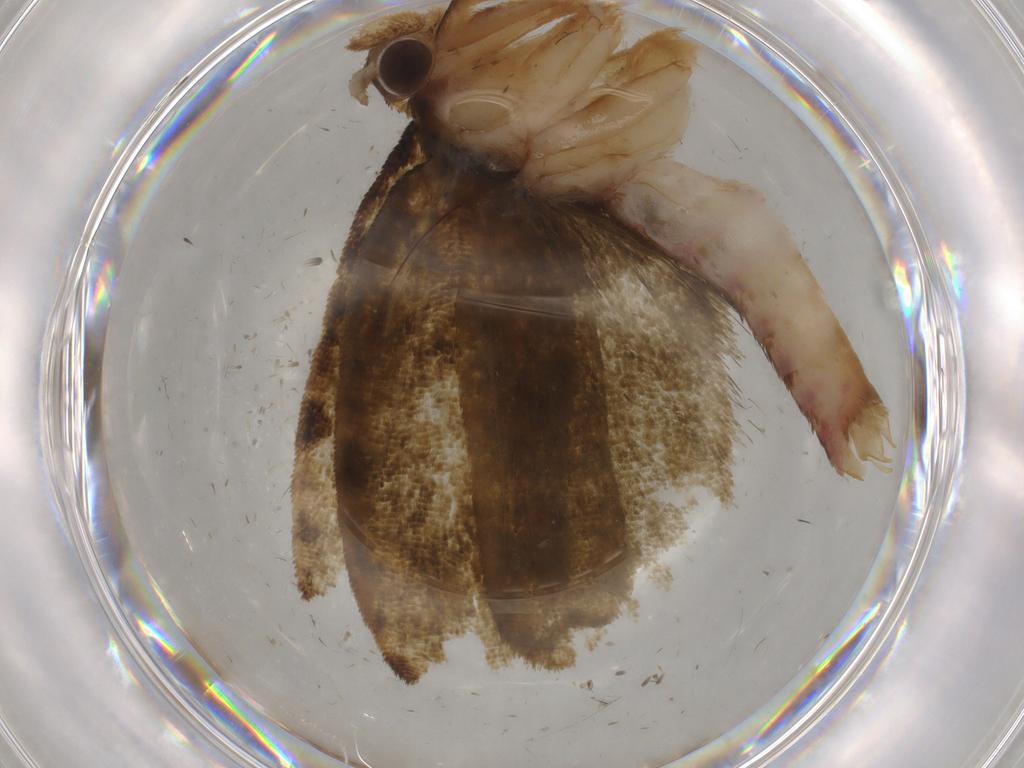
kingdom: Animalia
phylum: Arthropoda
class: Insecta
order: Lepidoptera
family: Geometridae
